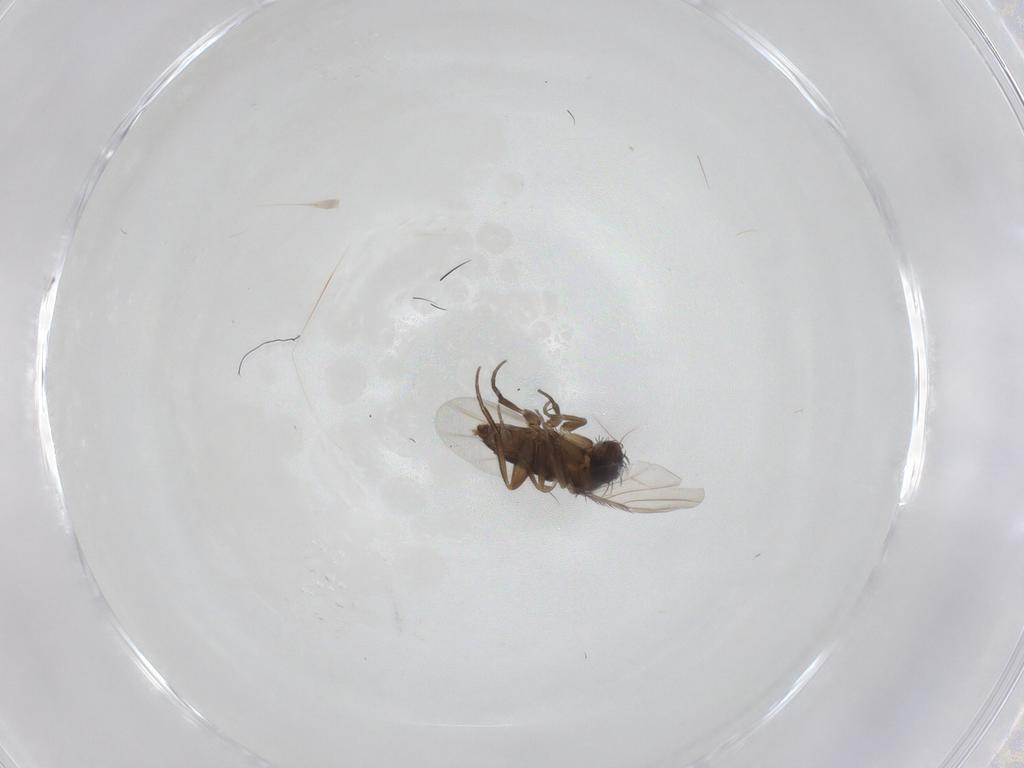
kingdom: Animalia
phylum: Arthropoda
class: Insecta
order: Diptera
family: Phoridae
